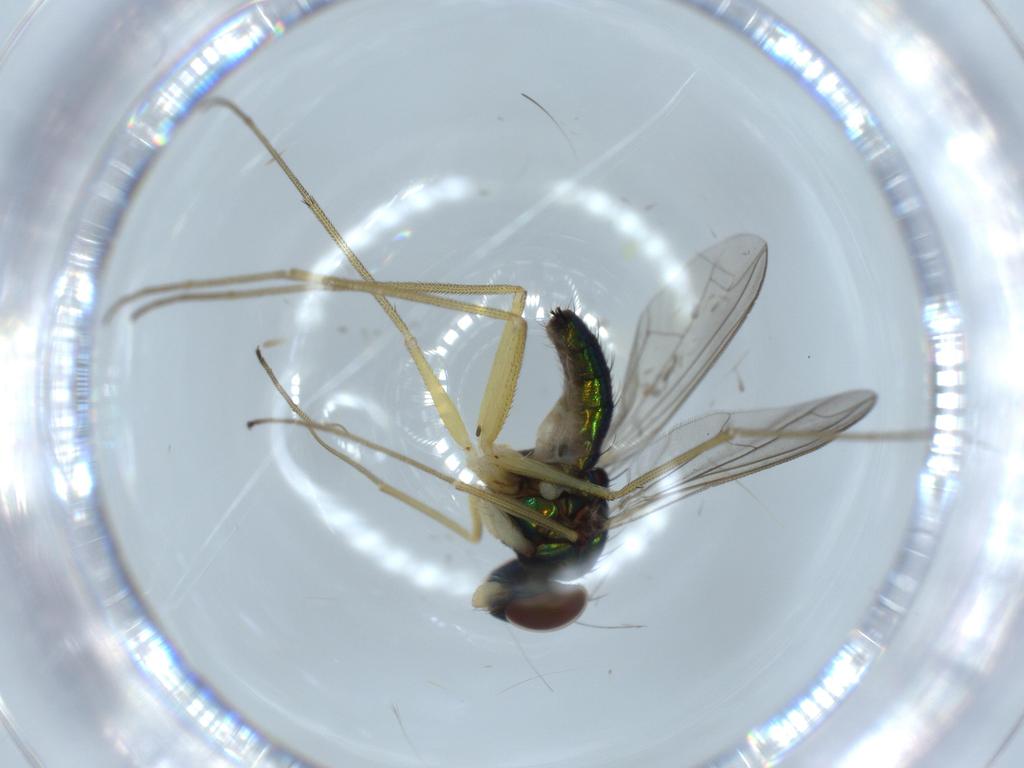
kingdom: Animalia
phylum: Arthropoda
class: Insecta
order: Diptera
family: Dolichopodidae
